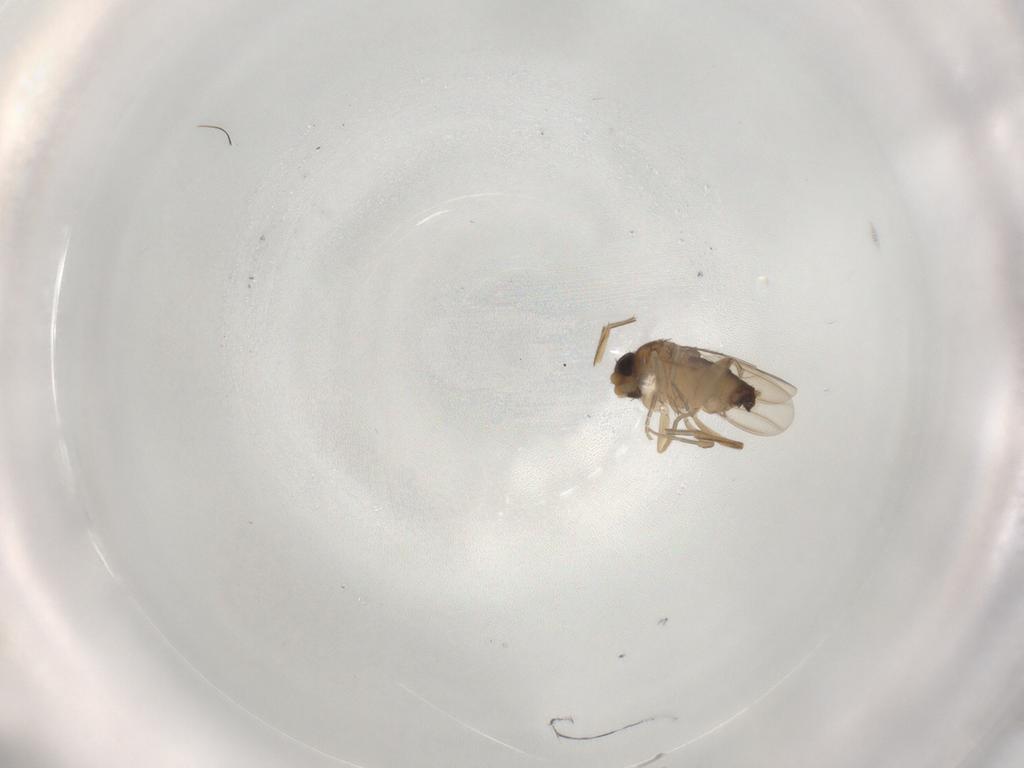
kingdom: Animalia
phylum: Arthropoda
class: Insecta
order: Diptera
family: Phoridae
